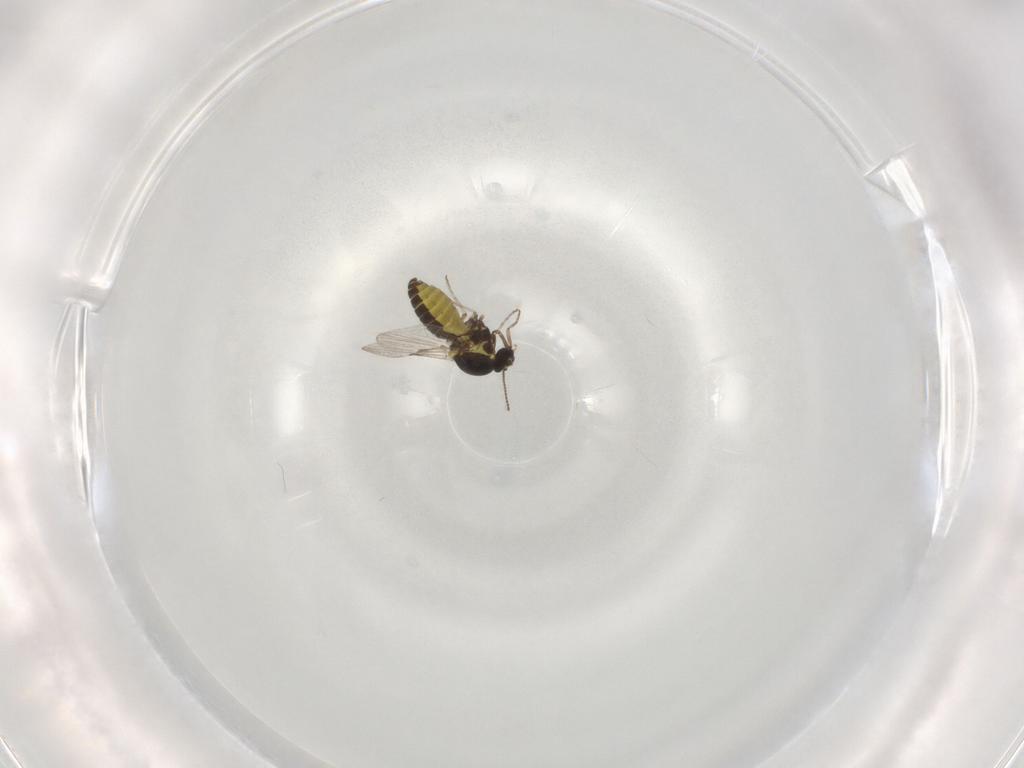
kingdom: Animalia
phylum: Arthropoda
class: Insecta
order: Diptera
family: Ceratopogonidae
